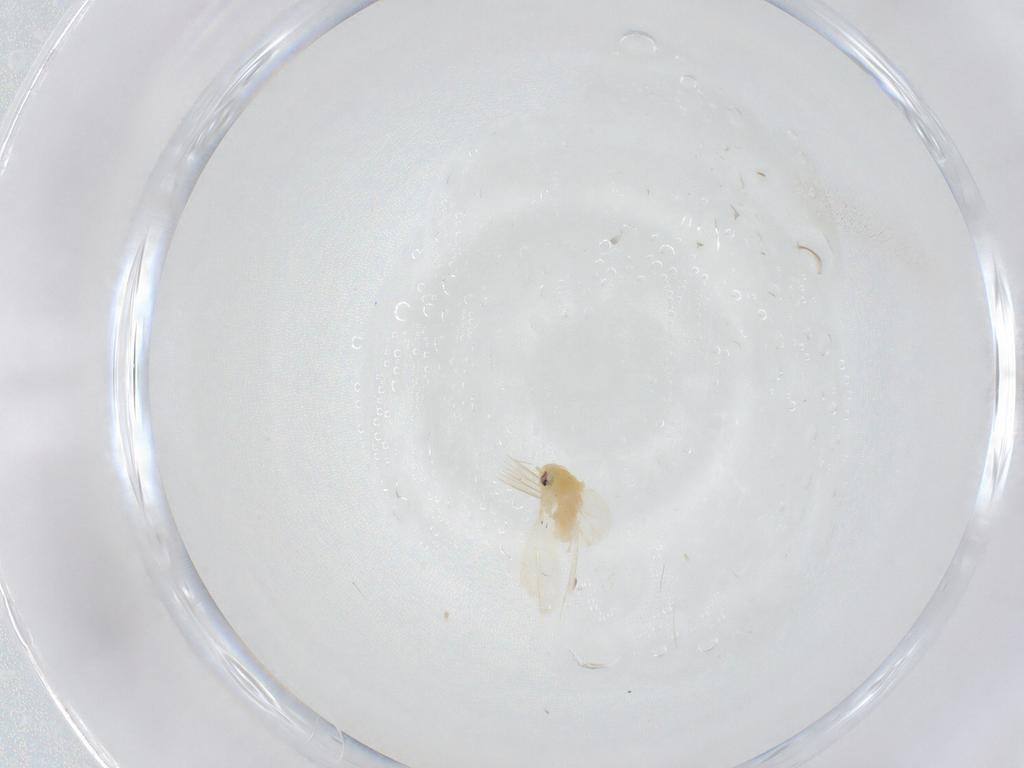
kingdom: Animalia
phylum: Arthropoda
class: Insecta
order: Hemiptera
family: Aleyrodidae
